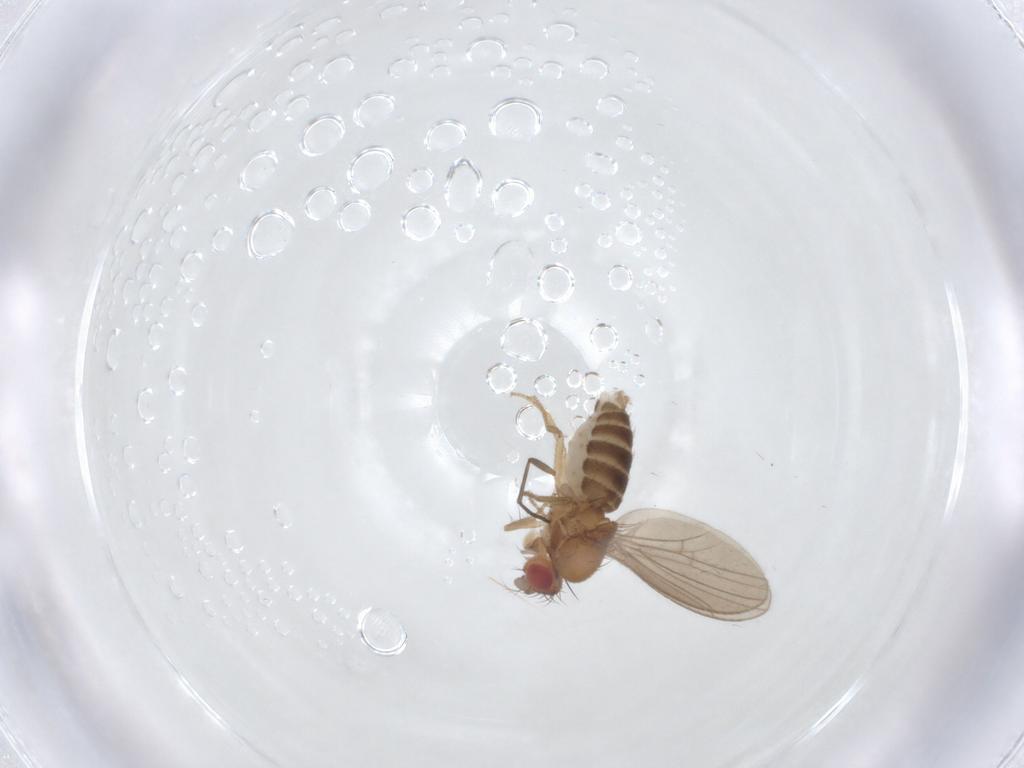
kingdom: Animalia
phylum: Arthropoda
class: Insecta
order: Diptera
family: Drosophilidae
